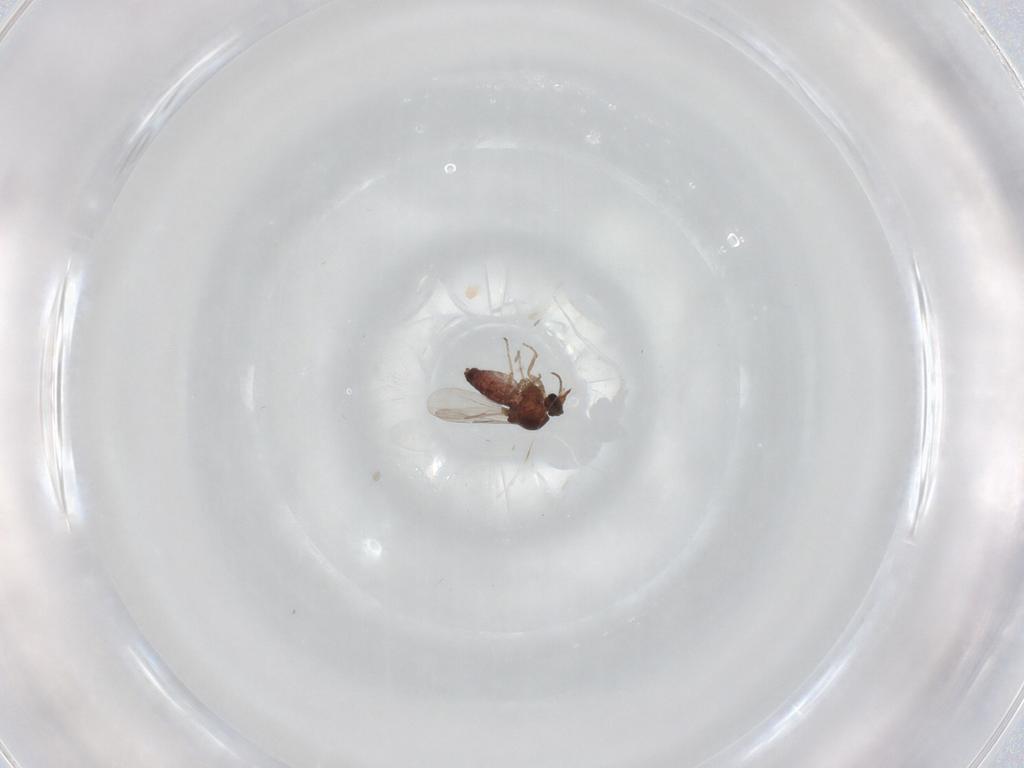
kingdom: Animalia
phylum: Arthropoda
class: Insecta
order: Diptera
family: Ceratopogonidae
